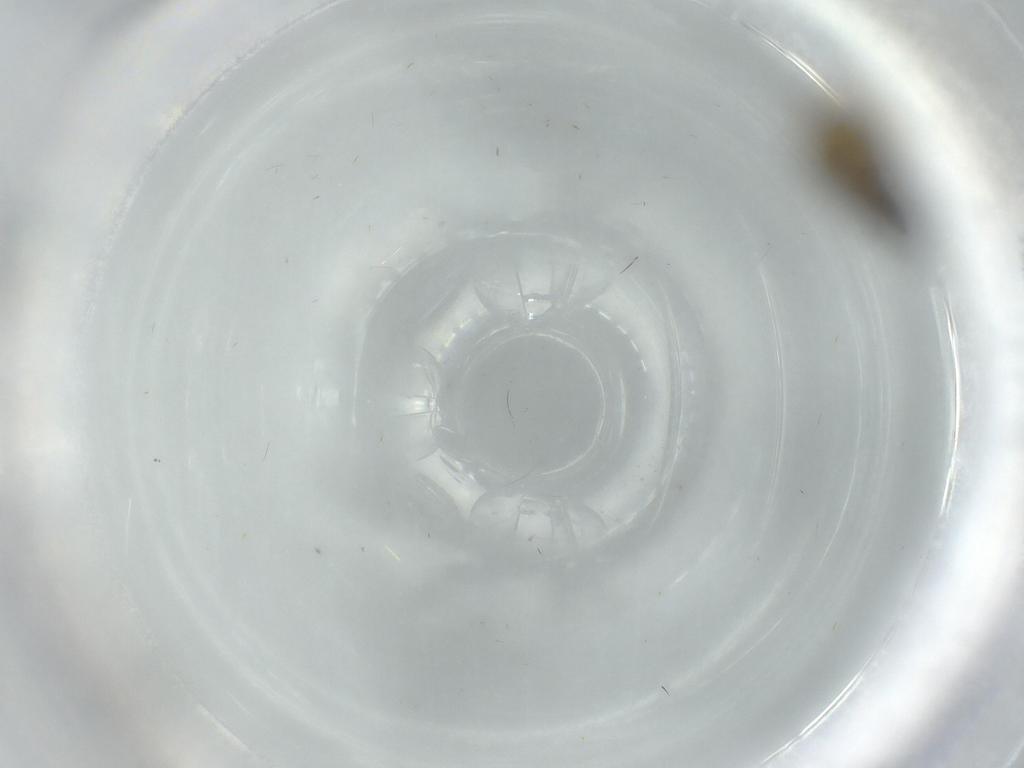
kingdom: Animalia
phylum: Arthropoda
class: Insecta
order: Lepidoptera
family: Gracillariidae
